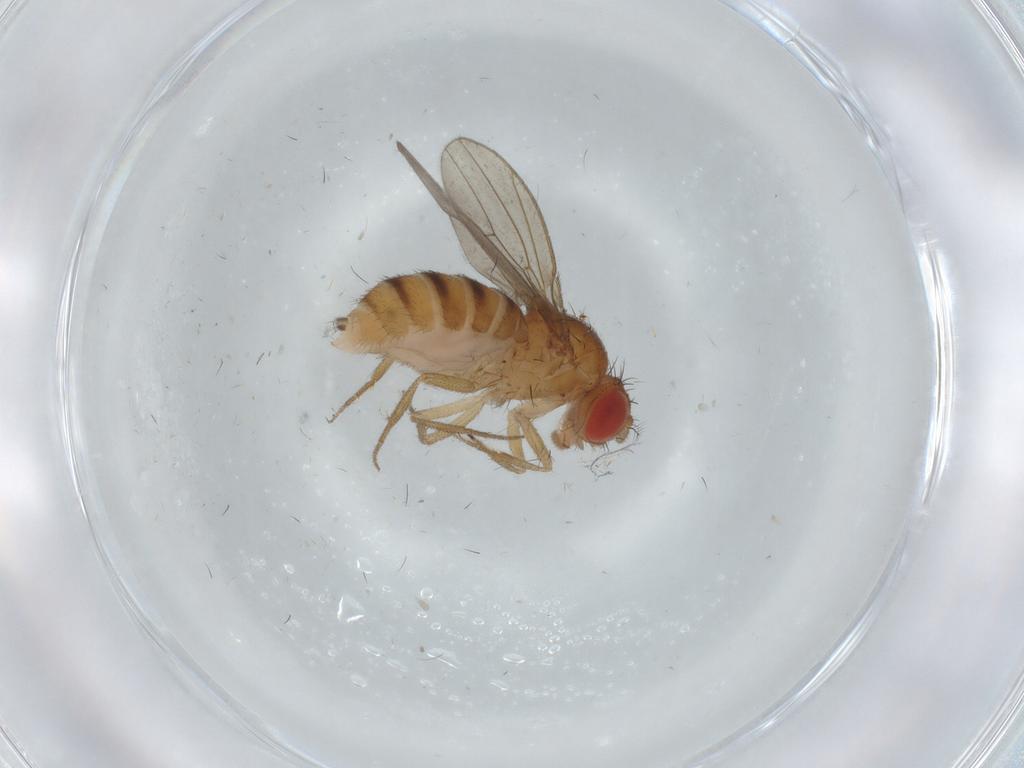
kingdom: Animalia
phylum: Arthropoda
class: Insecta
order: Diptera
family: Drosophilidae
